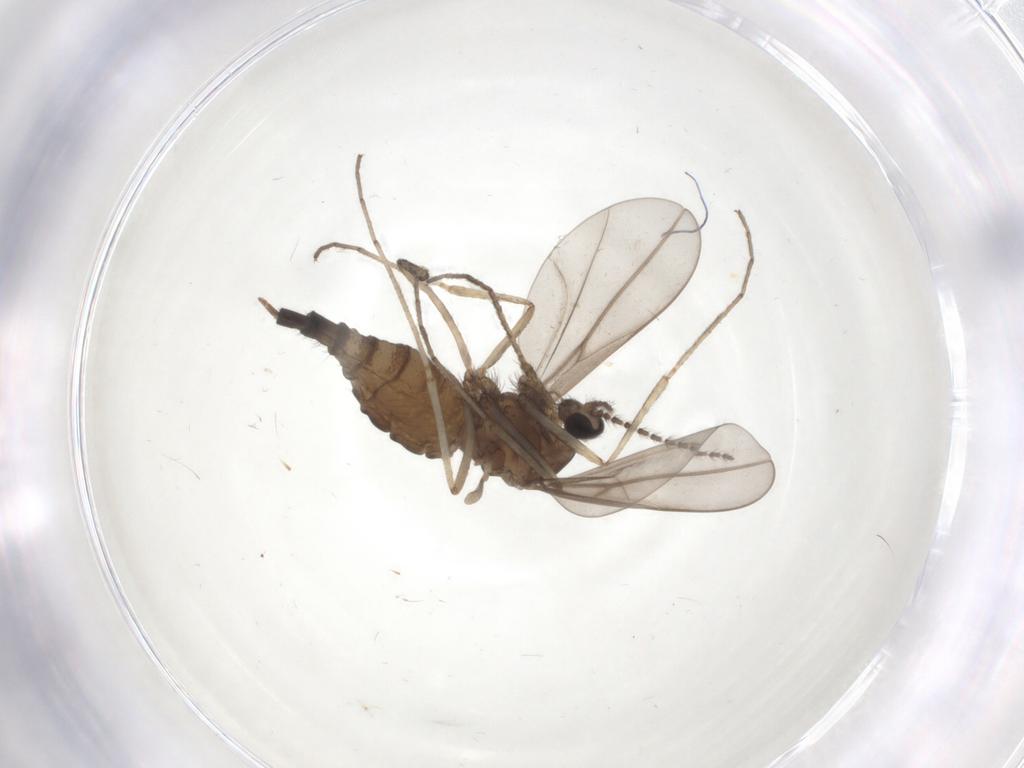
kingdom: Animalia
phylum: Arthropoda
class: Insecta
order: Diptera
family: Cecidomyiidae
